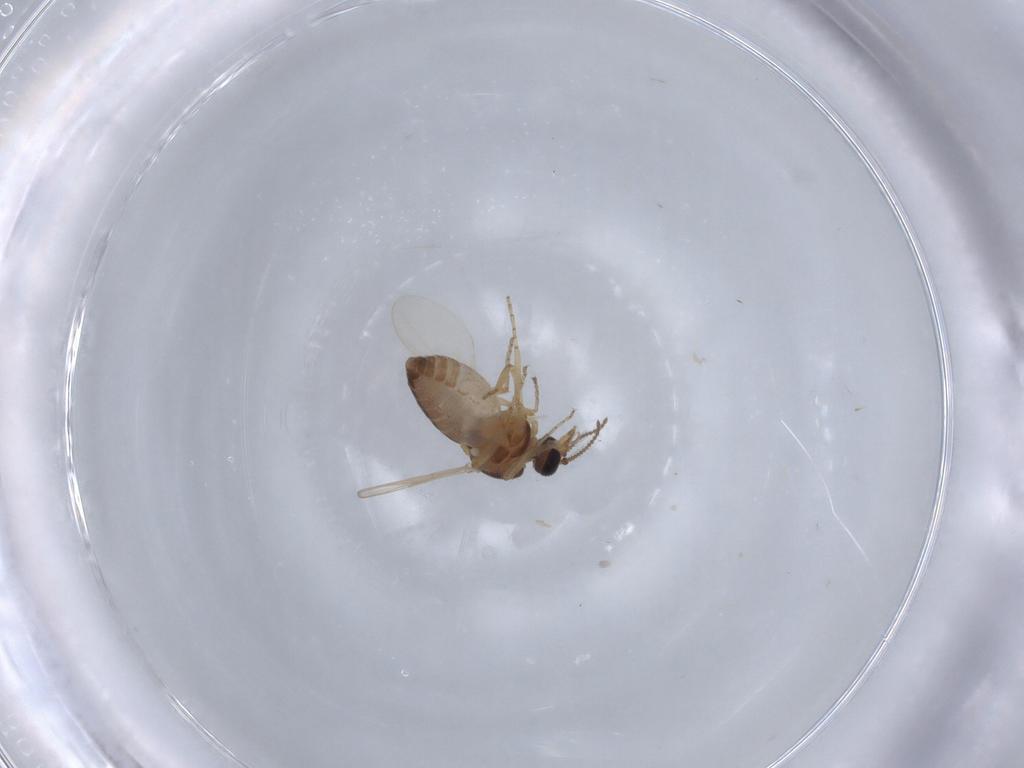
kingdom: Animalia
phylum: Arthropoda
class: Insecta
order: Diptera
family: Ceratopogonidae
